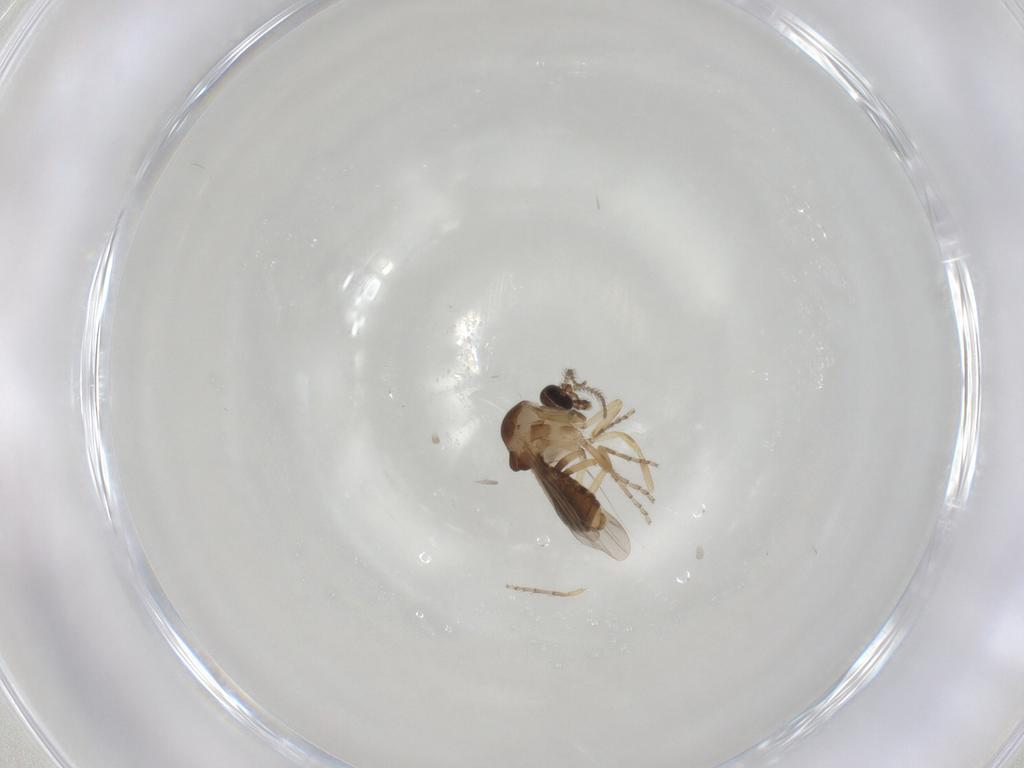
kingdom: Animalia
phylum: Arthropoda
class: Insecta
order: Diptera
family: Ceratopogonidae
